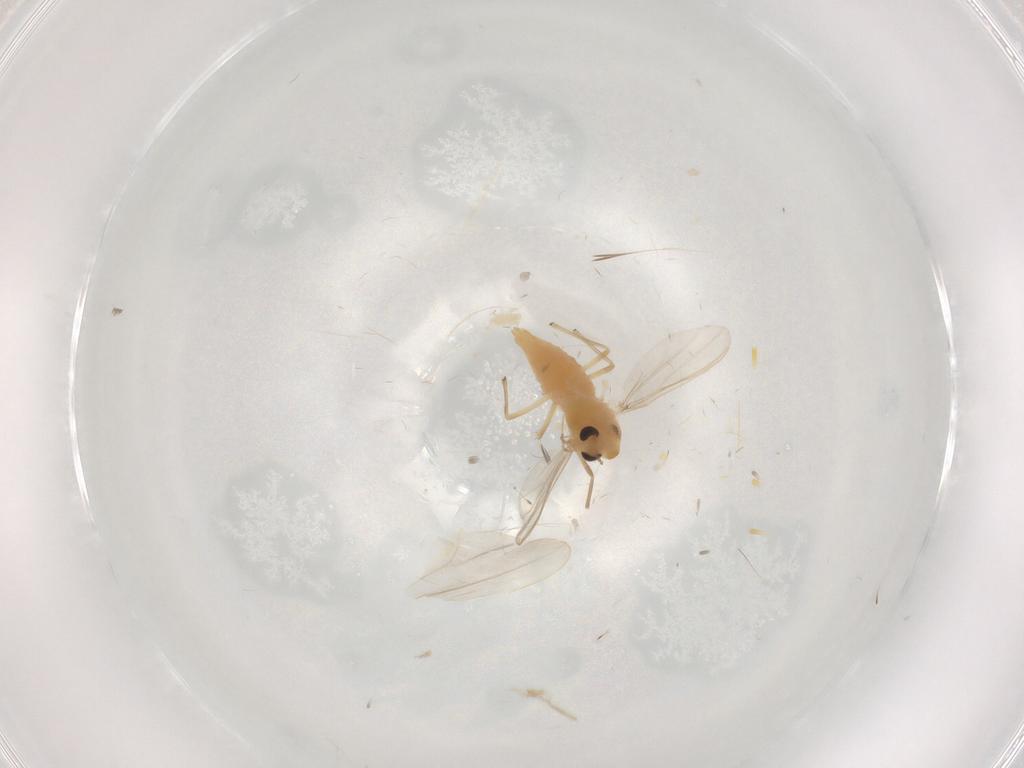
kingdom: Animalia
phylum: Arthropoda
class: Insecta
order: Diptera
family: Chironomidae
